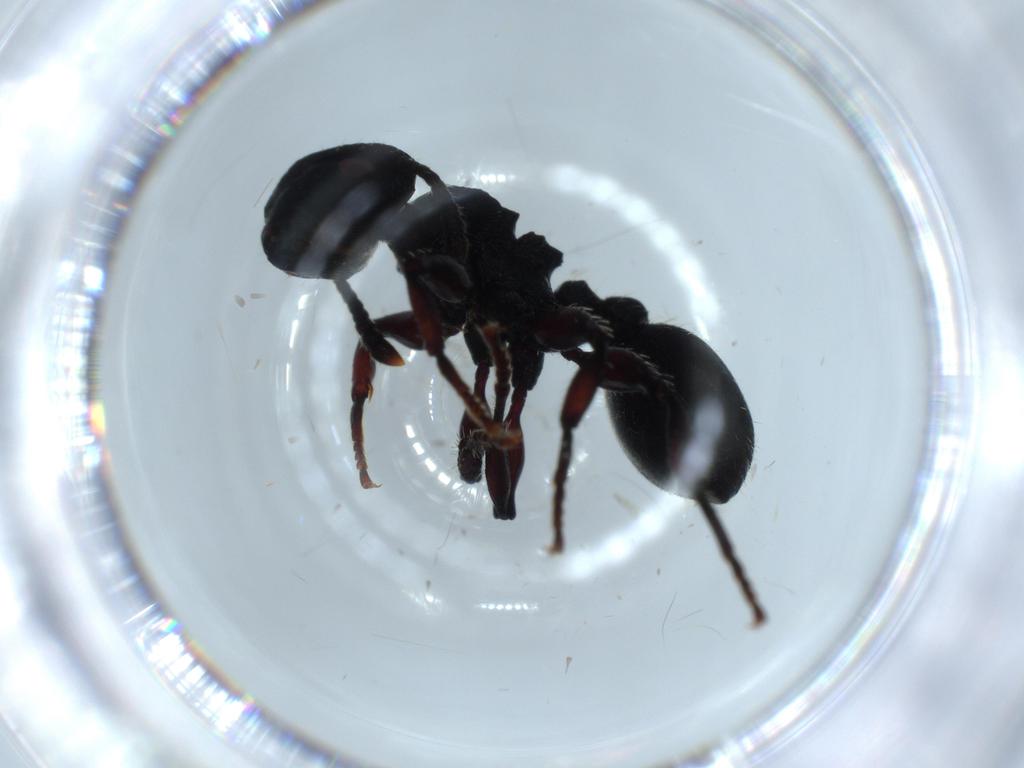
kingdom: Animalia
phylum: Arthropoda
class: Insecta
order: Hymenoptera
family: Formicidae
